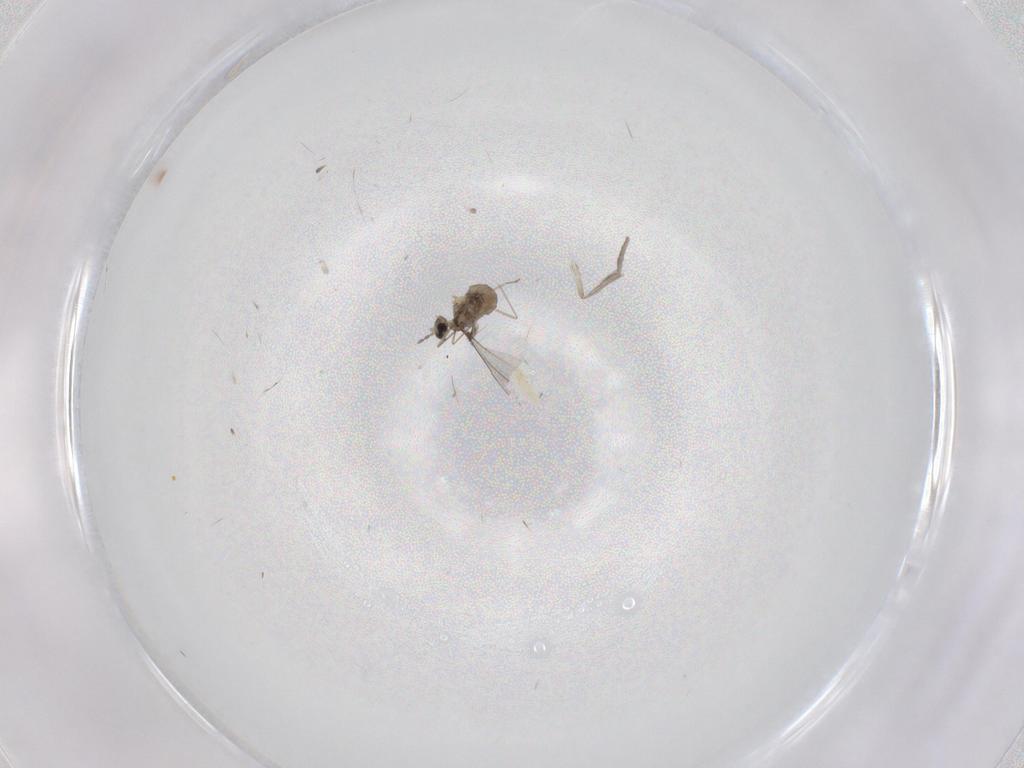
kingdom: Animalia
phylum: Arthropoda
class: Insecta
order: Diptera
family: Psychodidae
